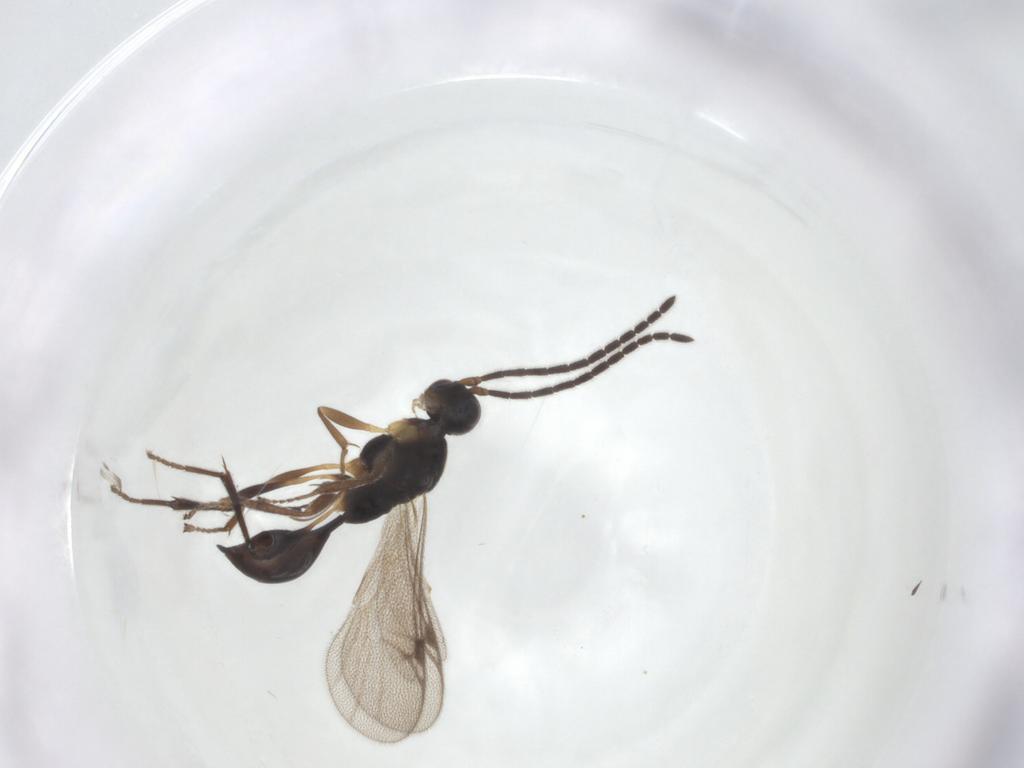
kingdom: Animalia
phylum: Arthropoda
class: Insecta
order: Hymenoptera
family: Proctotrupidae
